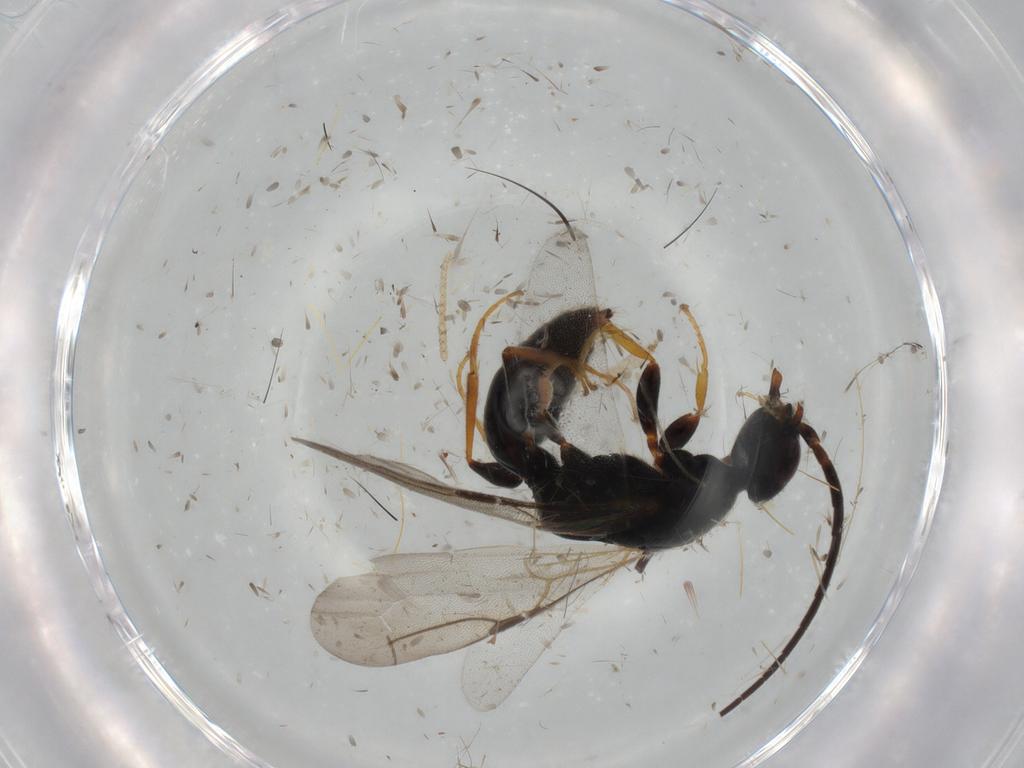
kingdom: Animalia
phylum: Arthropoda
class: Insecta
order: Hymenoptera
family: Bethylidae
